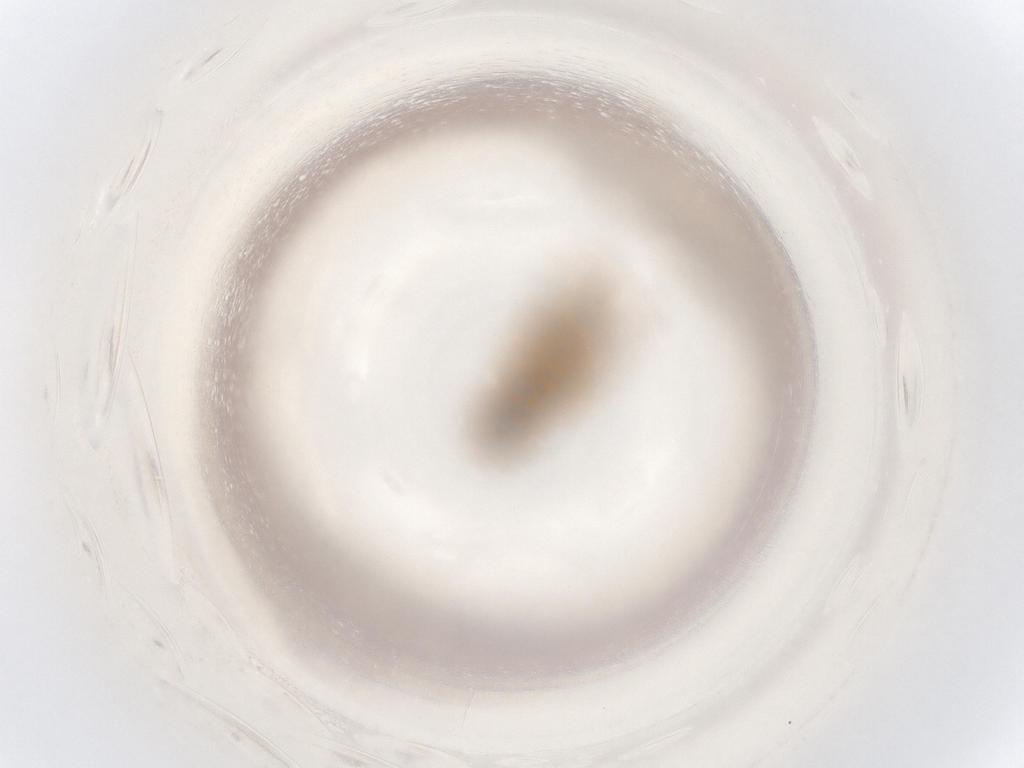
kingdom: Animalia
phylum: Arthropoda
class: Insecta
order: Diptera
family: Chloropidae
